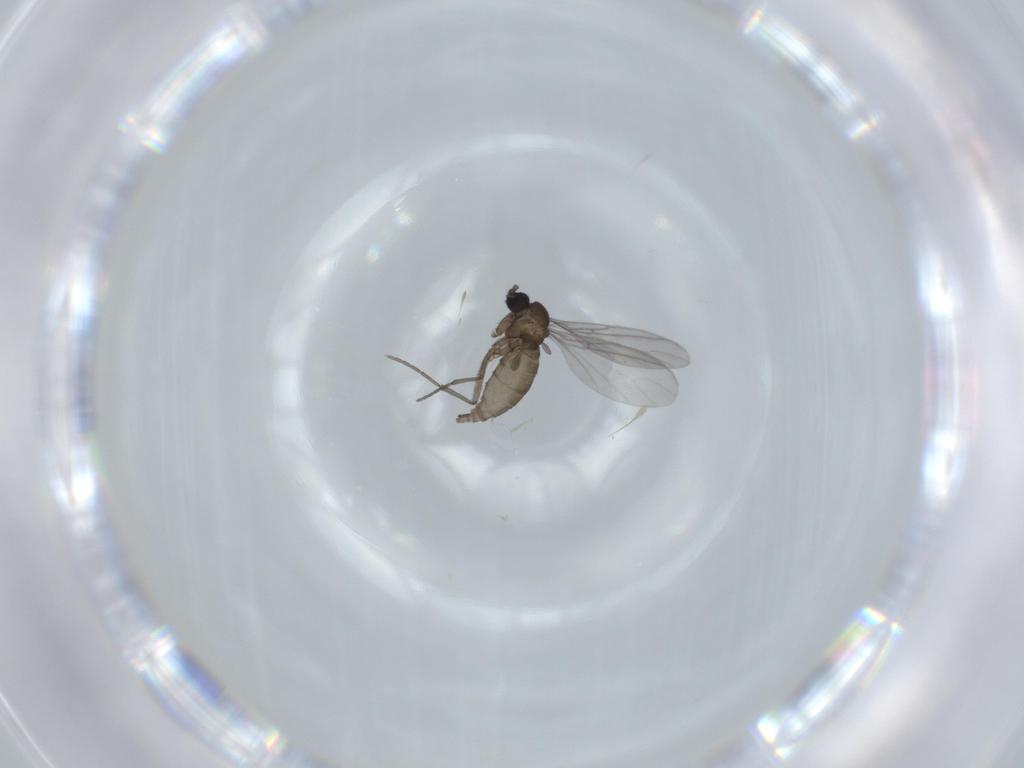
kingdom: Animalia
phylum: Arthropoda
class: Insecta
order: Diptera
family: Sciaridae
